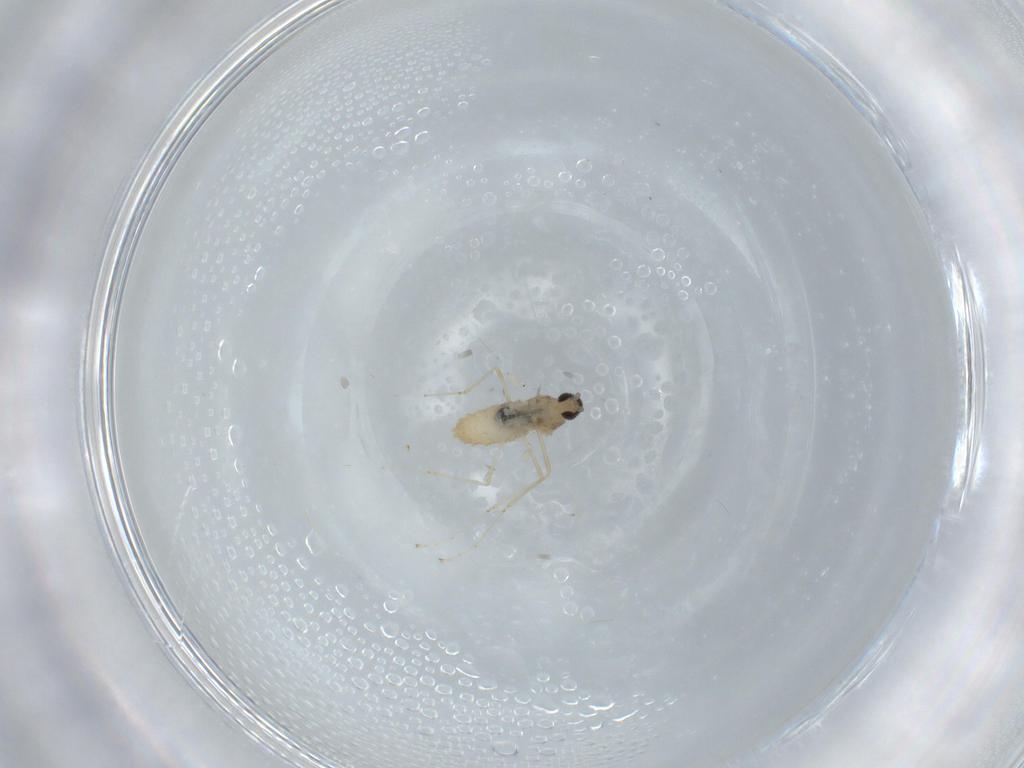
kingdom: Animalia
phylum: Arthropoda
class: Insecta
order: Diptera
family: Cecidomyiidae
